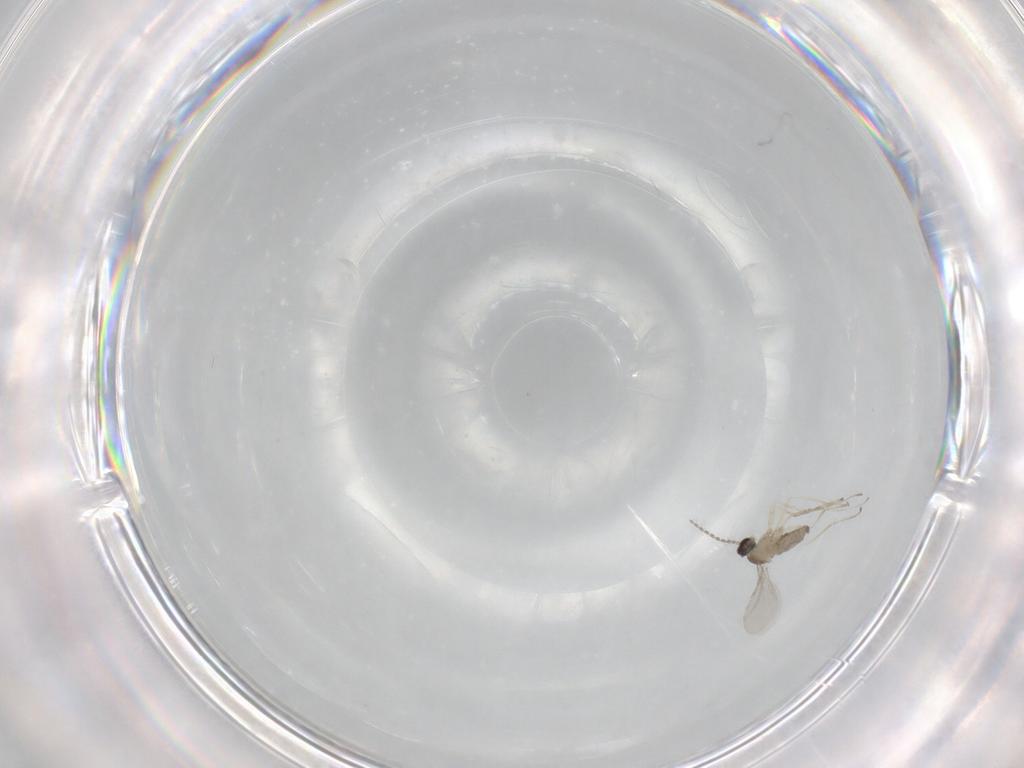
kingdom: Animalia
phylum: Arthropoda
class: Insecta
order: Diptera
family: Cecidomyiidae
